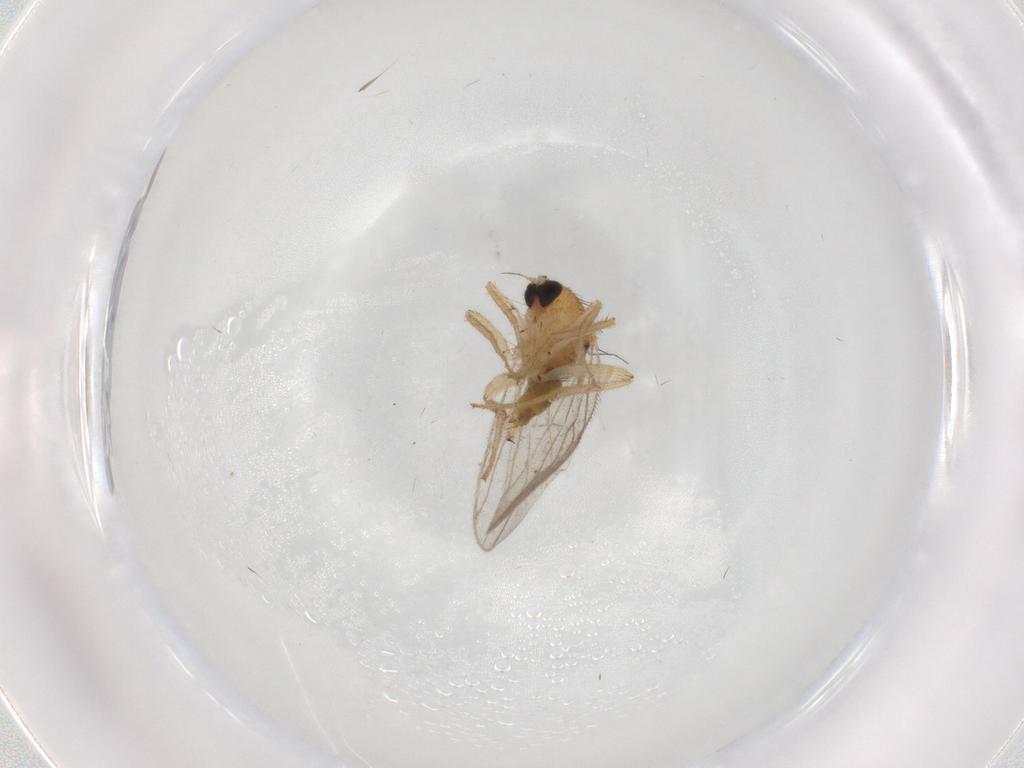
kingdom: Animalia
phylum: Arthropoda
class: Insecta
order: Diptera
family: Hybotidae
